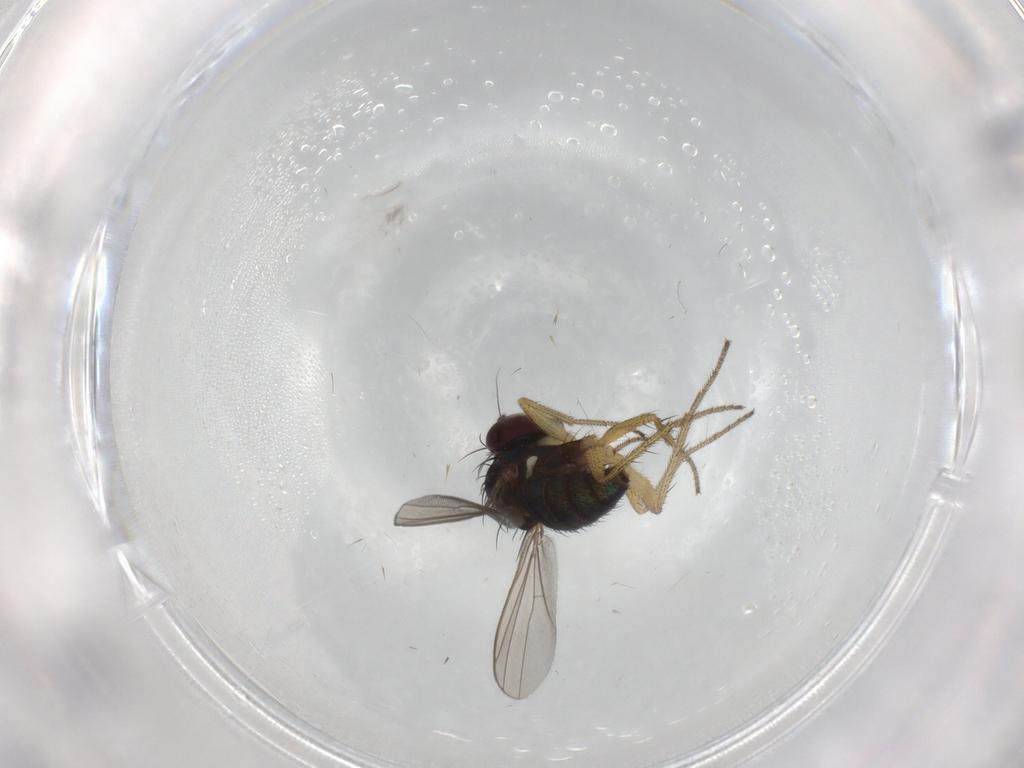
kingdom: Animalia
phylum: Arthropoda
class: Insecta
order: Diptera
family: Dolichopodidae
